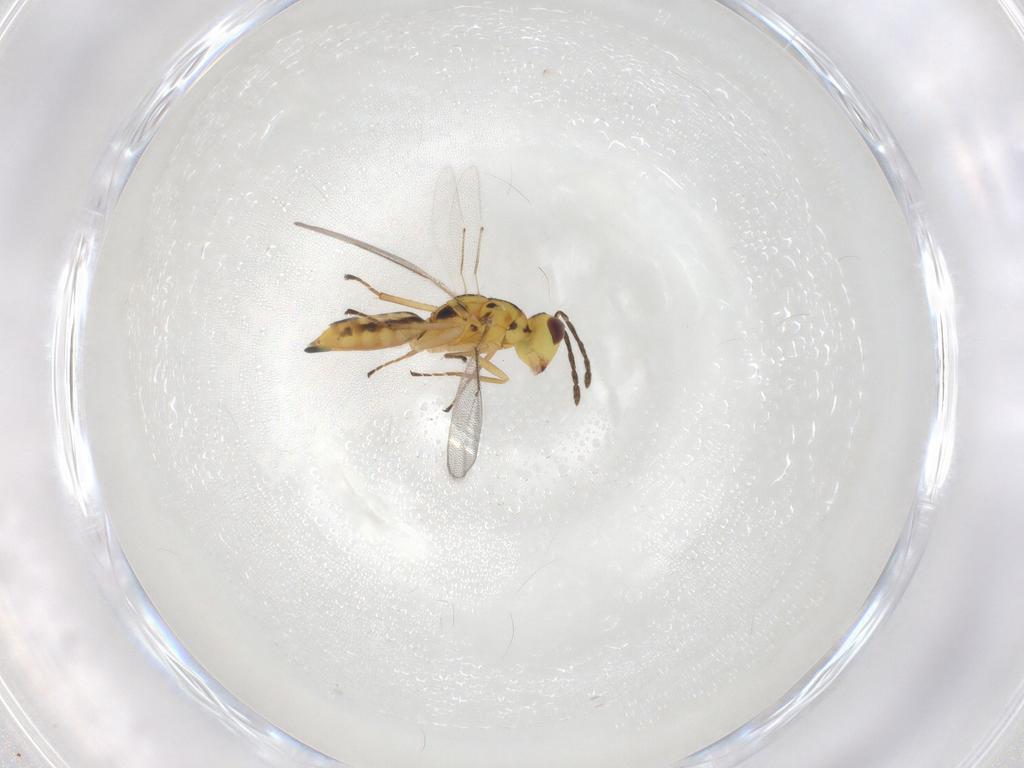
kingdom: Animalia
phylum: Arthropoda
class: Insecta
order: Hymenoptera
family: Eulophidae
